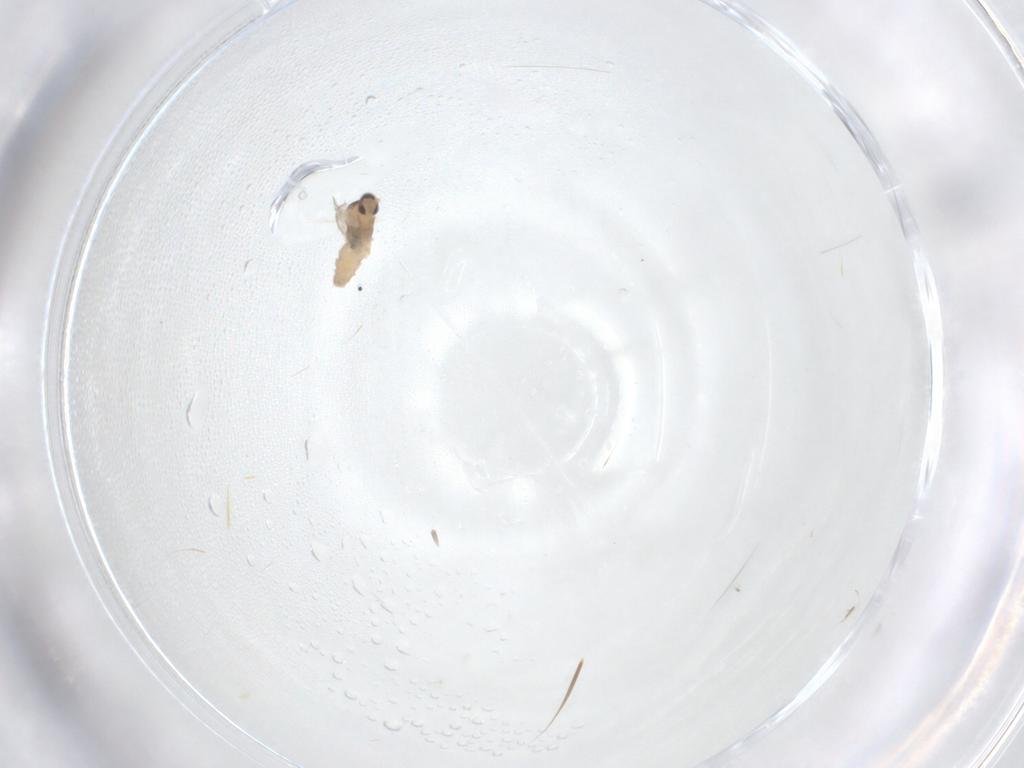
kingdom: Animalia
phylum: Arthropoda
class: Insecta
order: Diptera
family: Cecidomyiidae
